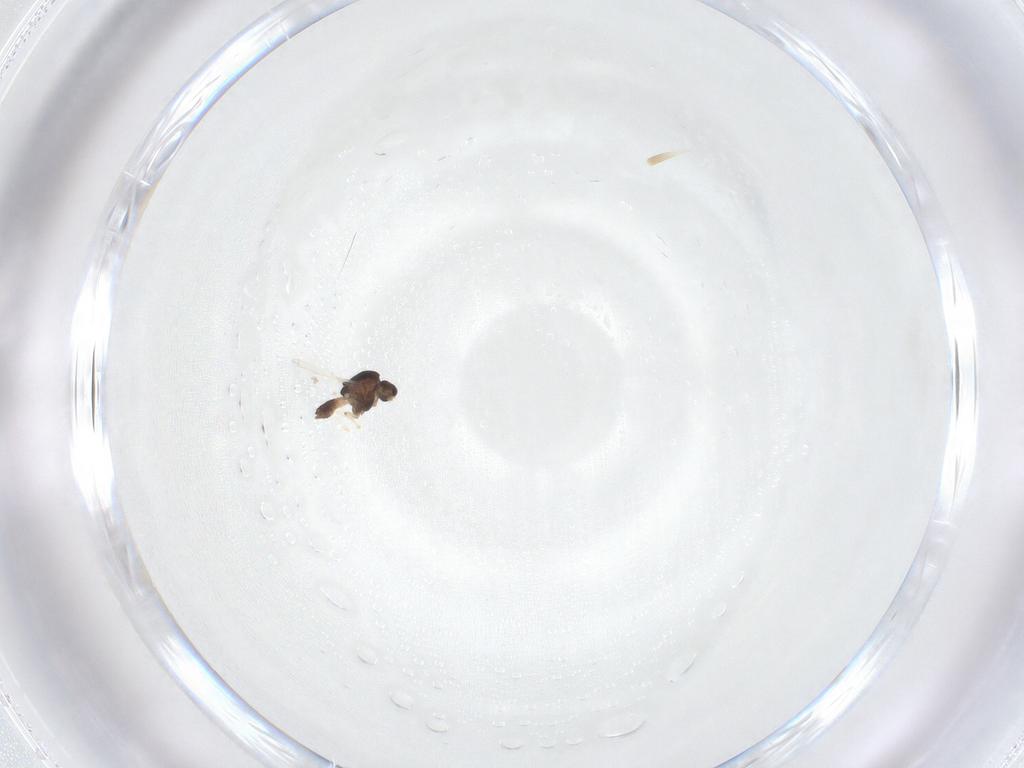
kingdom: Animalia
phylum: Arthropoda
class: Insecta
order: Diptera
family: Chironomidae
